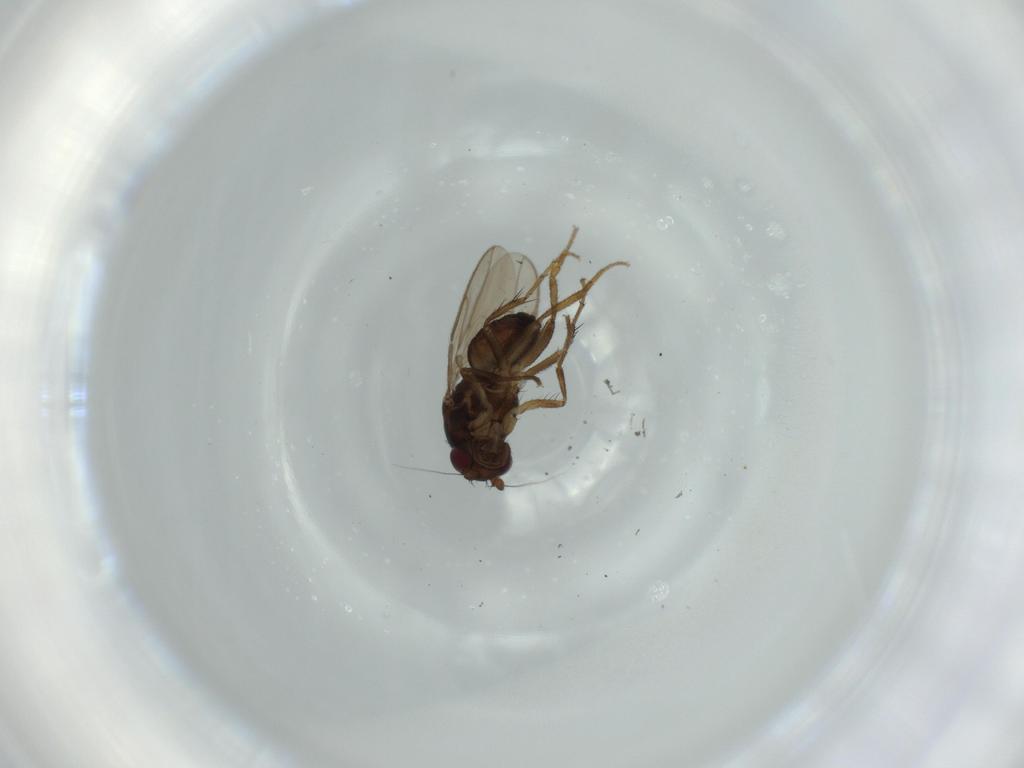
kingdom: Animalia
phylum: Arthropoda
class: Insecta
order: Diptera
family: Sphaeroceridae
